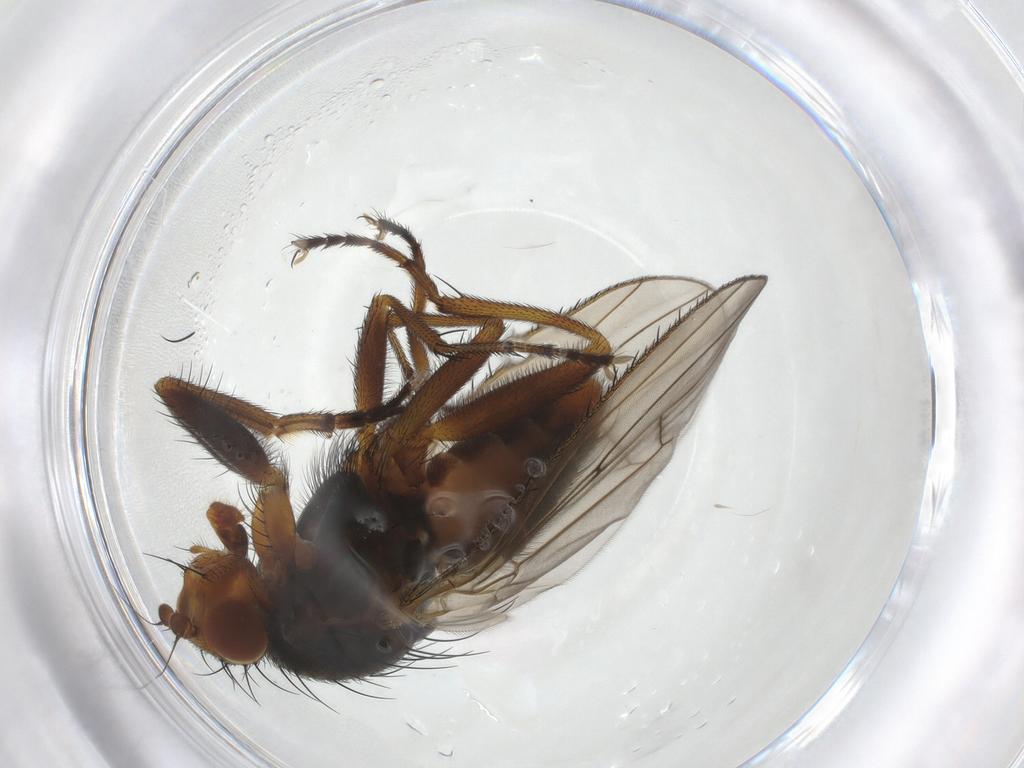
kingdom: Animalia
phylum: Arthropoda
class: Insecta
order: Diptera
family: Heleomyzidae
